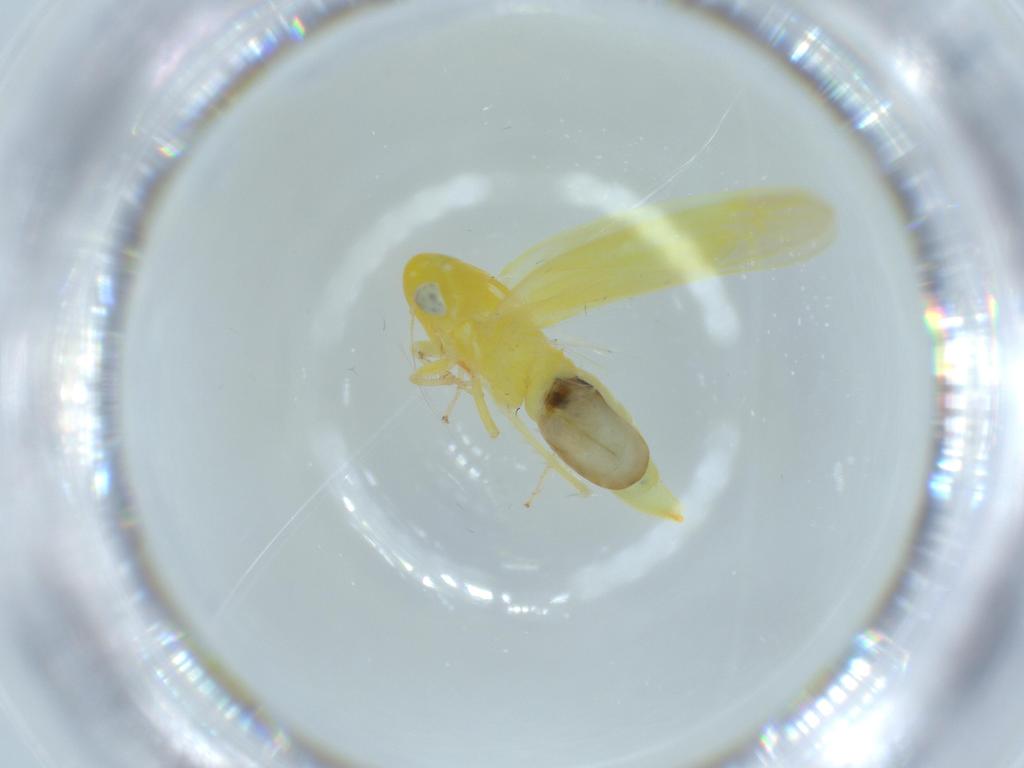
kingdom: Animalia
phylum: Arthropoda
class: Insecta
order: Hemiptera
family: Cicadellidae
